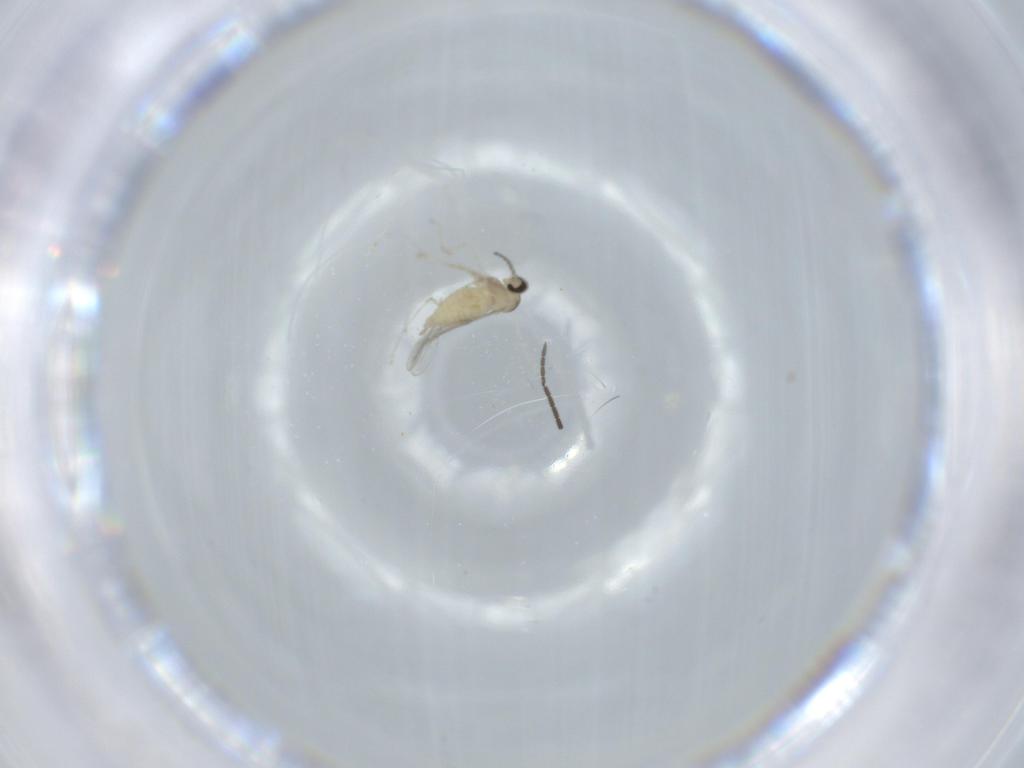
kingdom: Animalia
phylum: Arthropoda
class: Insecta
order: Diptera
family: Cecidomyiidae
